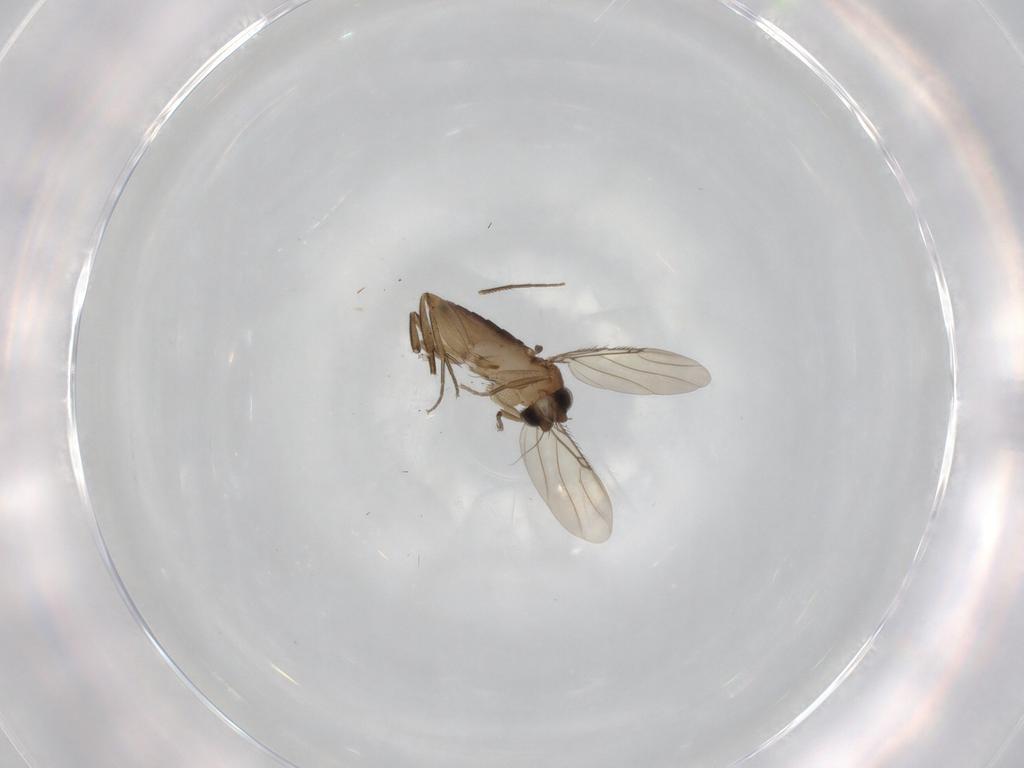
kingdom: Animalia
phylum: Arthropoda
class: Insecta
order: Diptera
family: Phoridae
